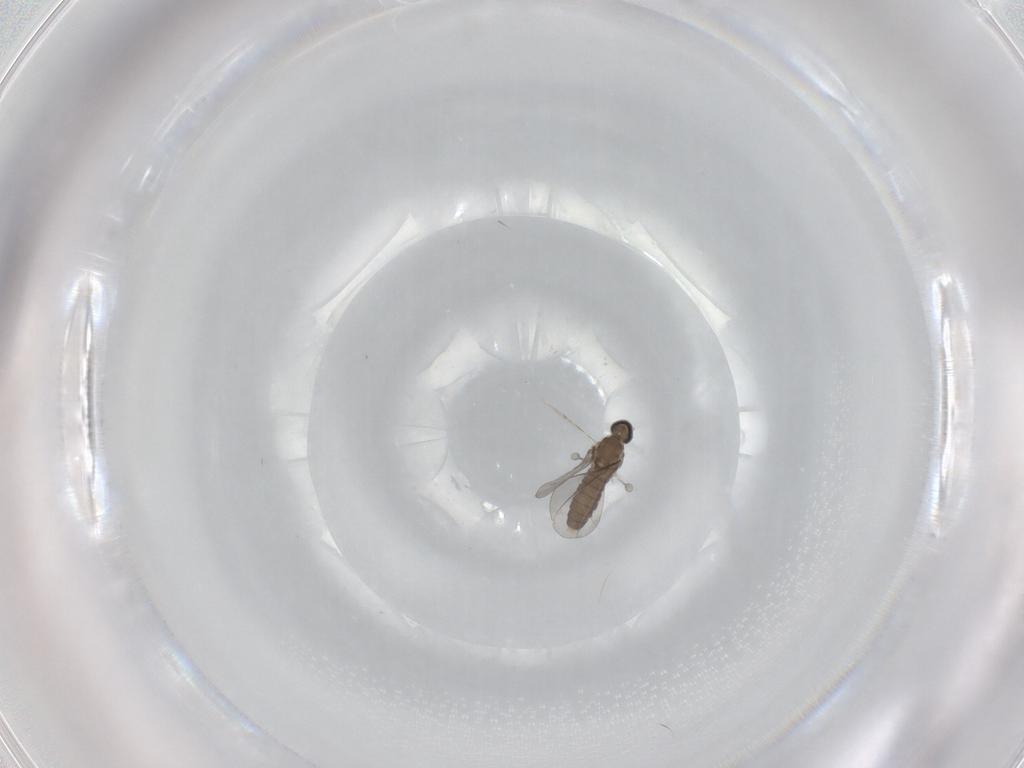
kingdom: Animalia
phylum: Arthropoda
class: Insecta
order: Diptera
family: Cecidomyiidae
